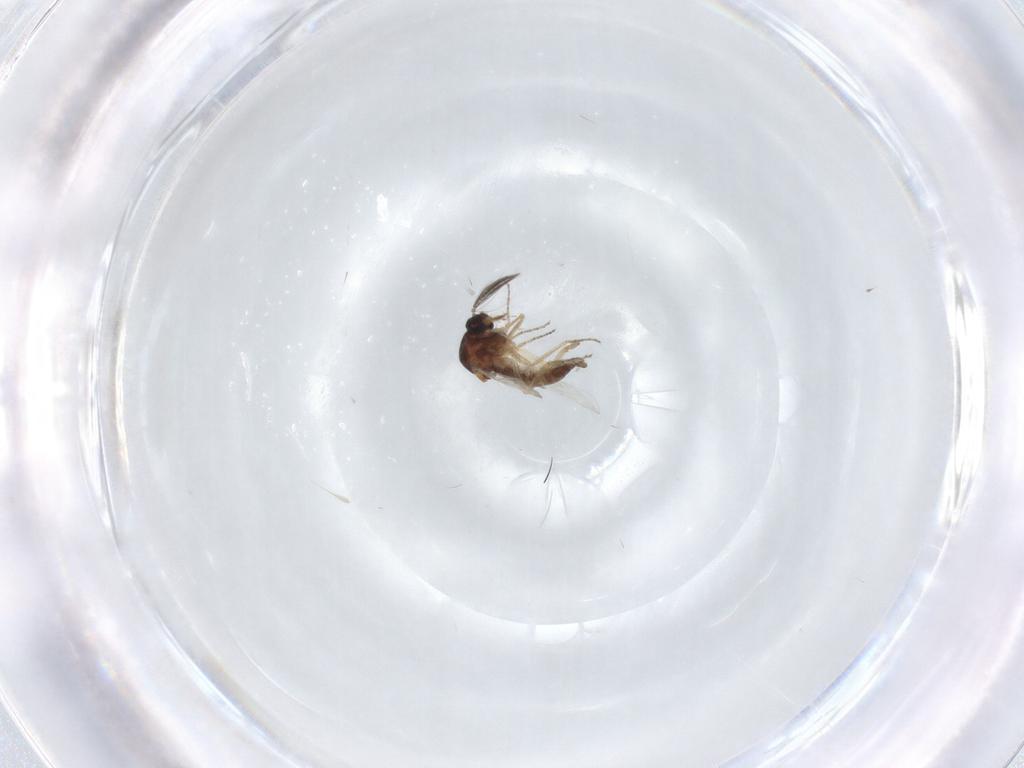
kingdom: Animalia
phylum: Arthropoda
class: Insecta
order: Diptera
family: Ceratopogonidae
